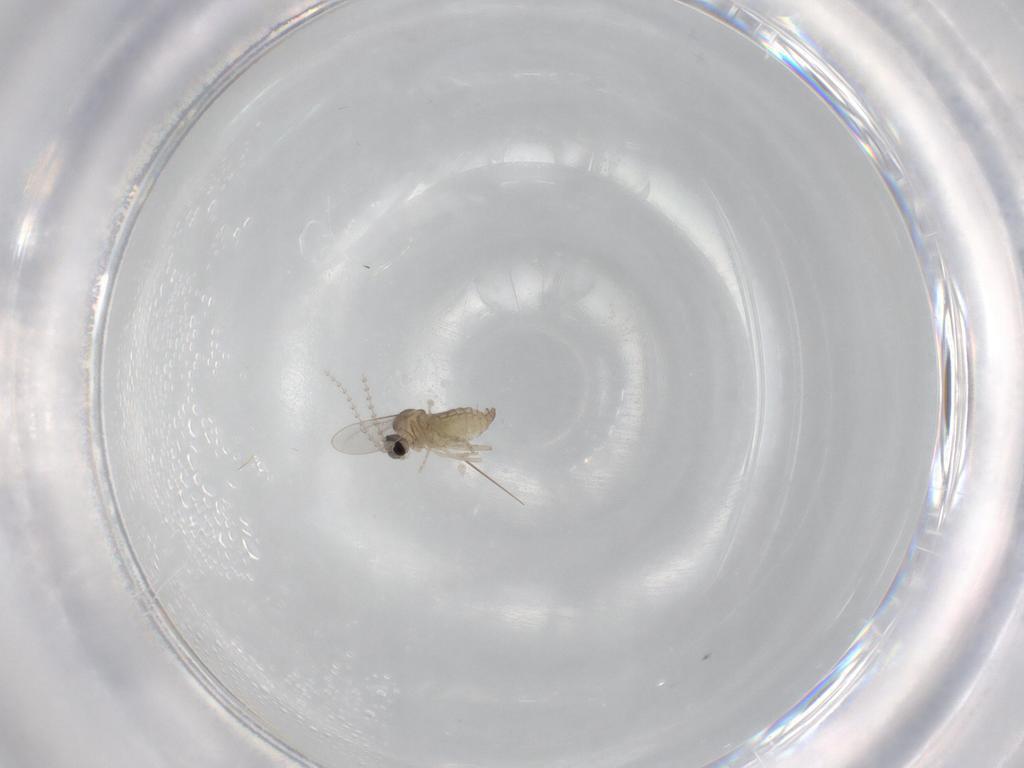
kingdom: Animalia
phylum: Arthropoda
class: Insecta
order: Diptera
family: Cecidomyiidae
